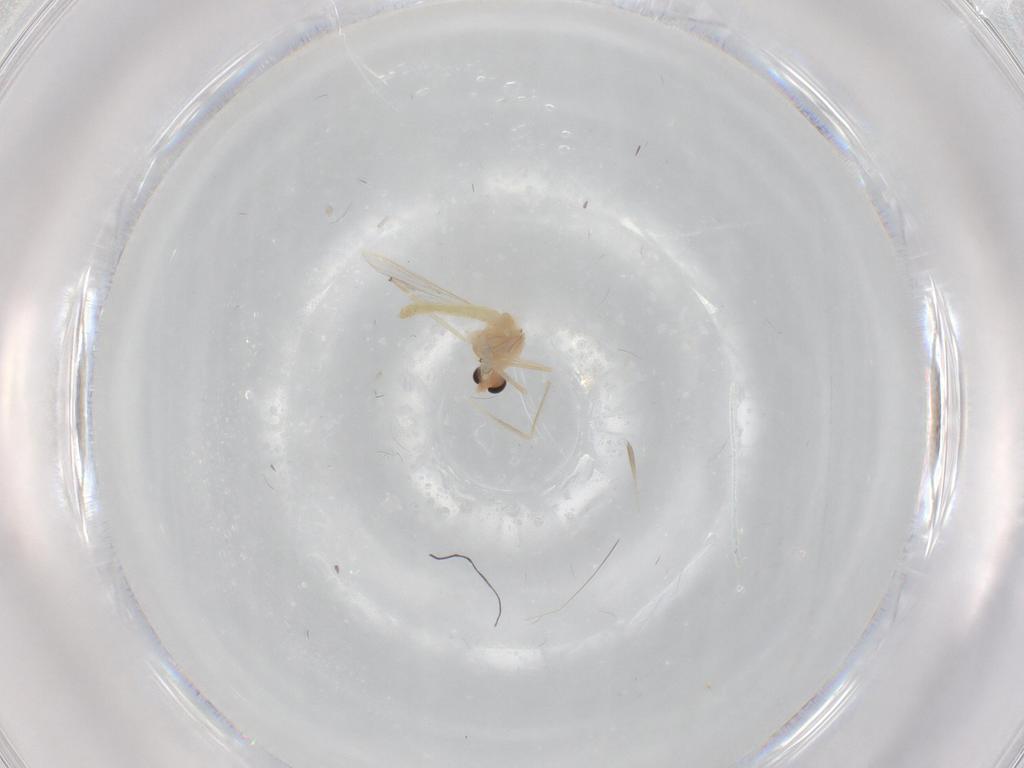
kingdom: Animalia
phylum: Arthropoda
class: Insecta
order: Diptera
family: Chironomidae
